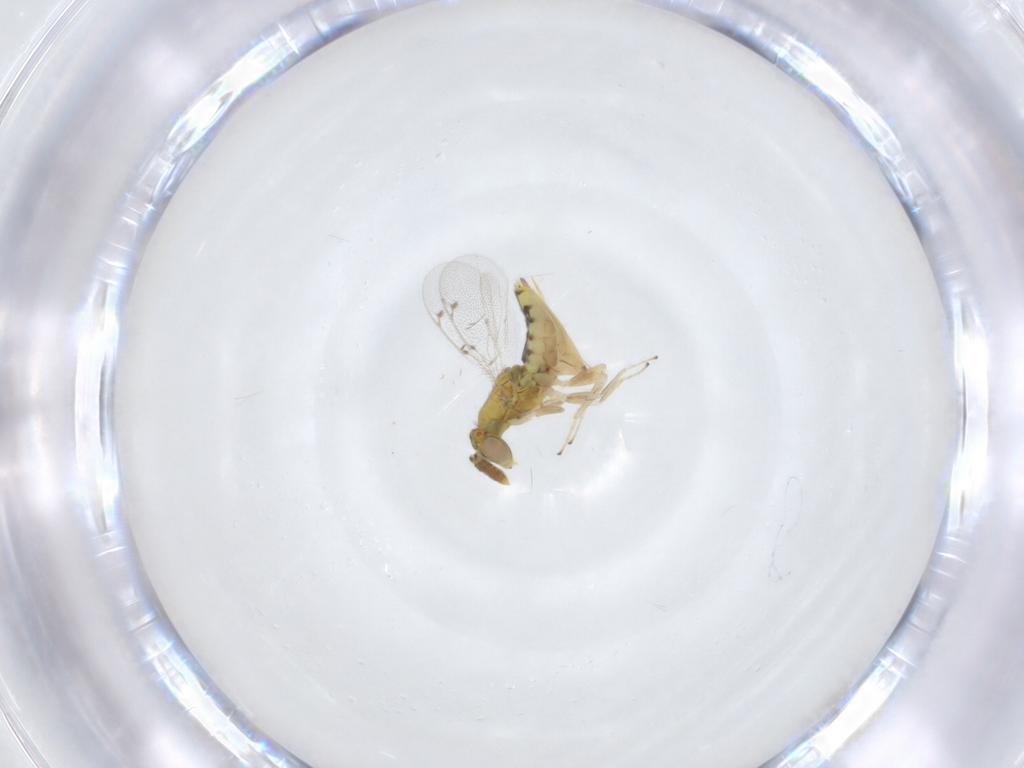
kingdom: Animalia
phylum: Arthropoda
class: Insecta
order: Hymenoptera
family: Eulophidae
